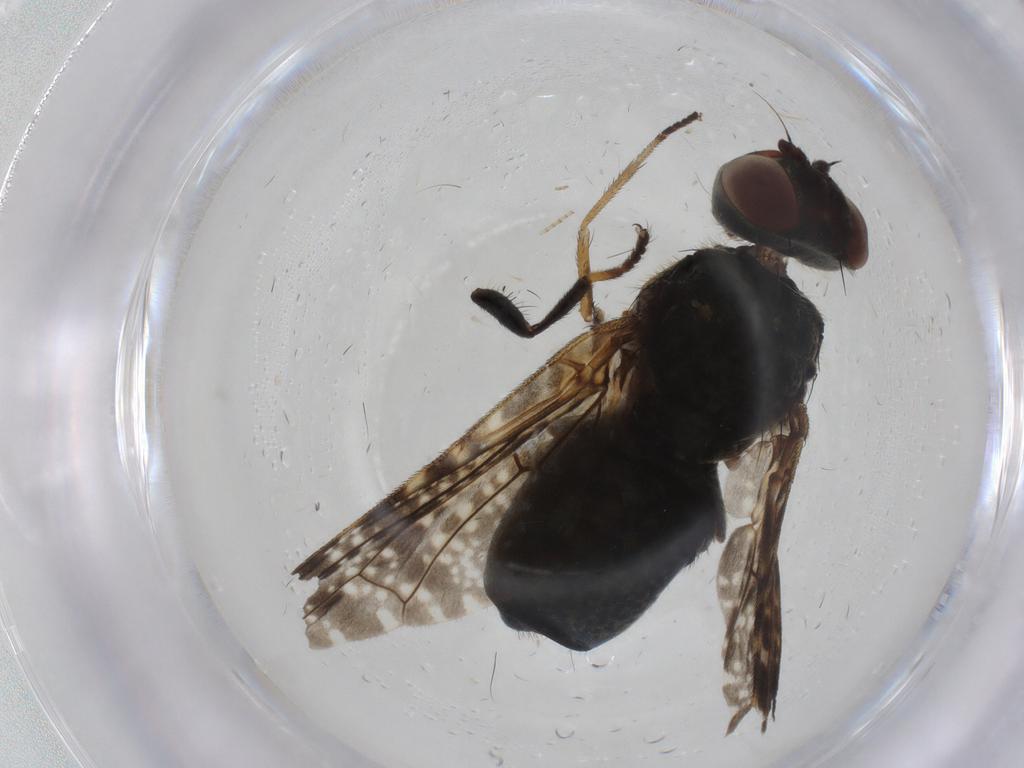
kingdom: Animalia
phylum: Arthropoda
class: Insecta
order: Diptera
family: Platystomatidae
